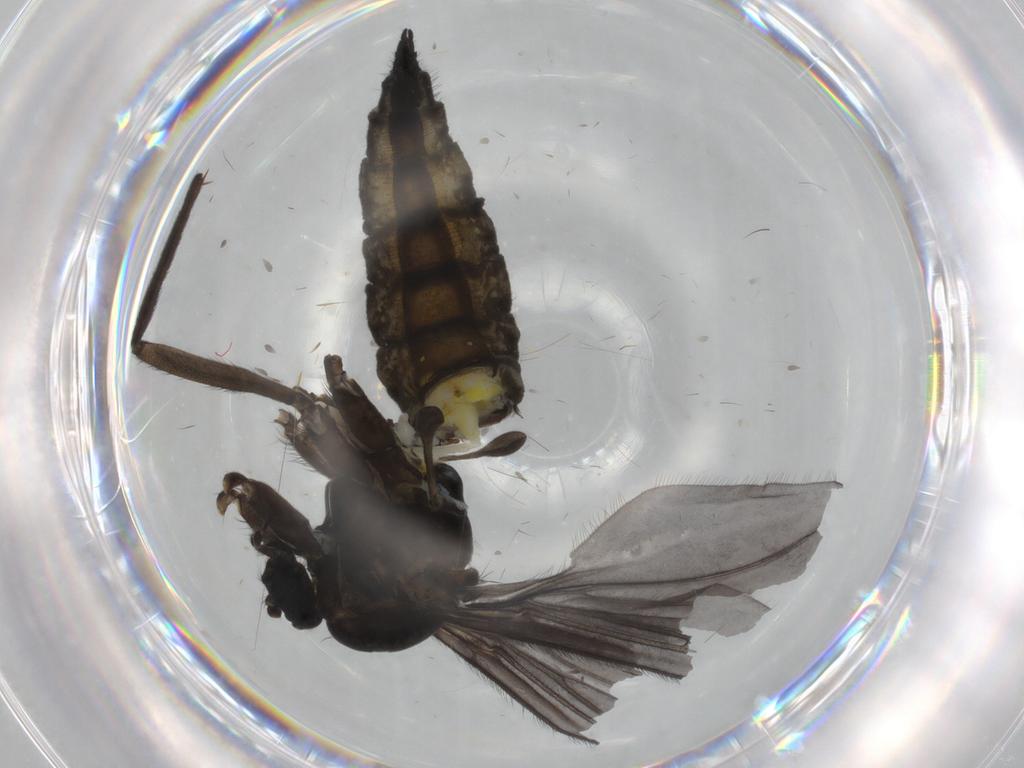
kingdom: Animalia
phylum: Arthropoda
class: Insecta
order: Diptera
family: Sciaridae
